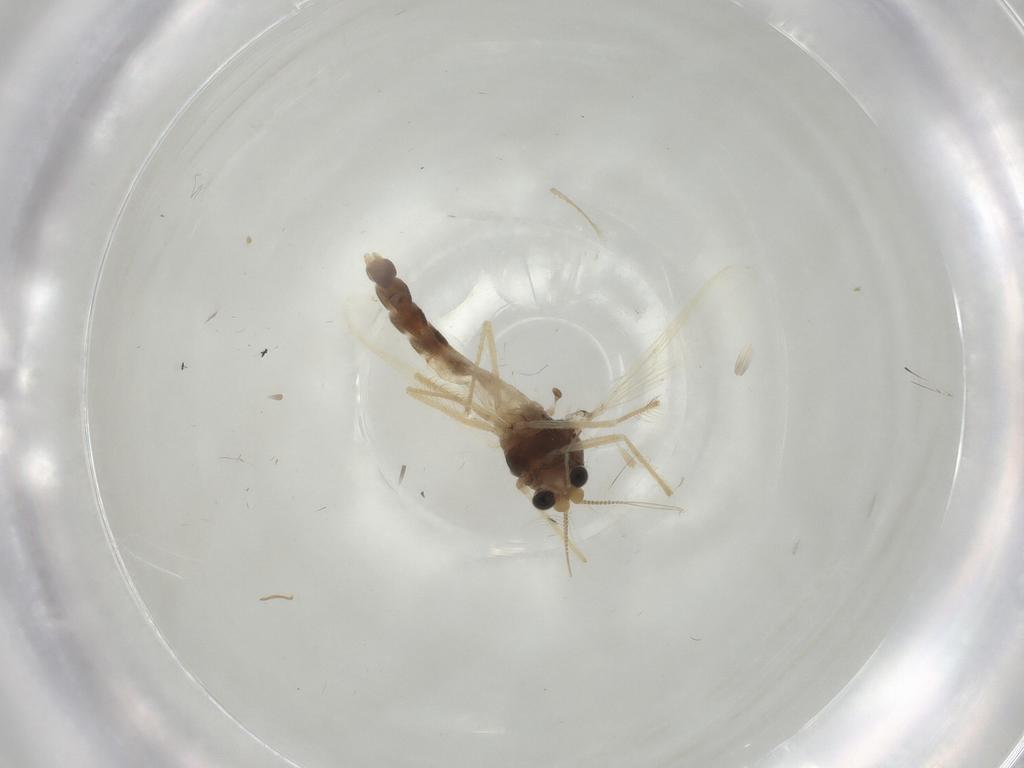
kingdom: Animalia
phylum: Arthropoda
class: Insecta
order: Diptera
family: Chironomidae
